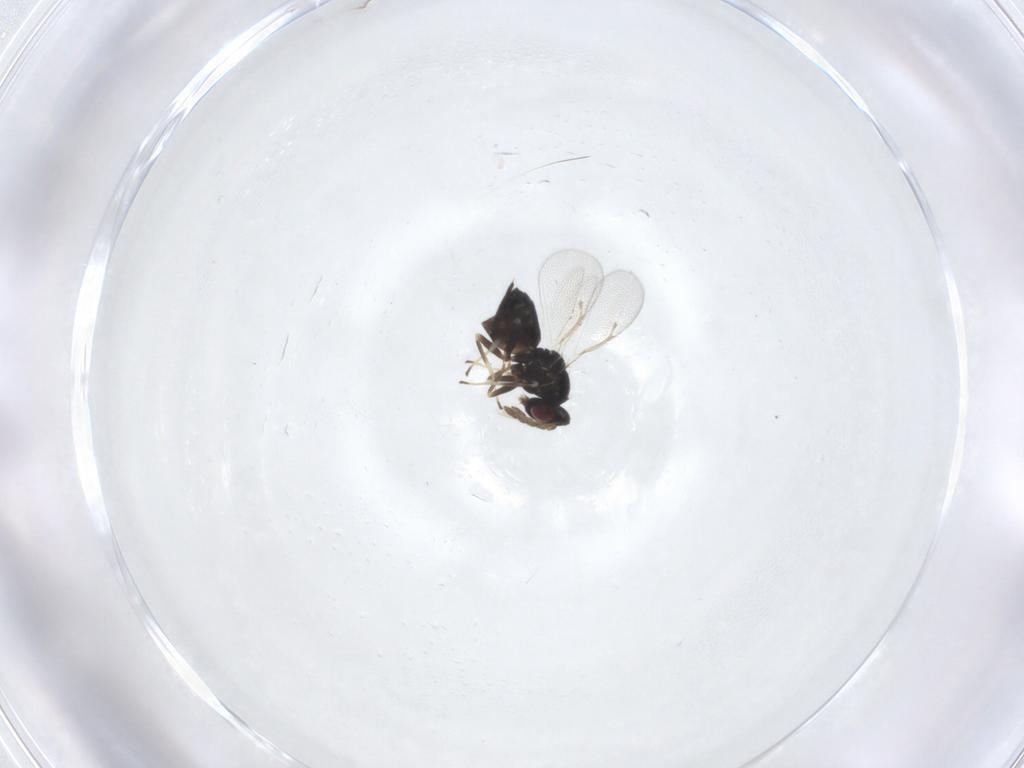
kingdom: Animalia
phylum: Arthropoda
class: Insecta
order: Hymenoptera
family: Eulophidae
